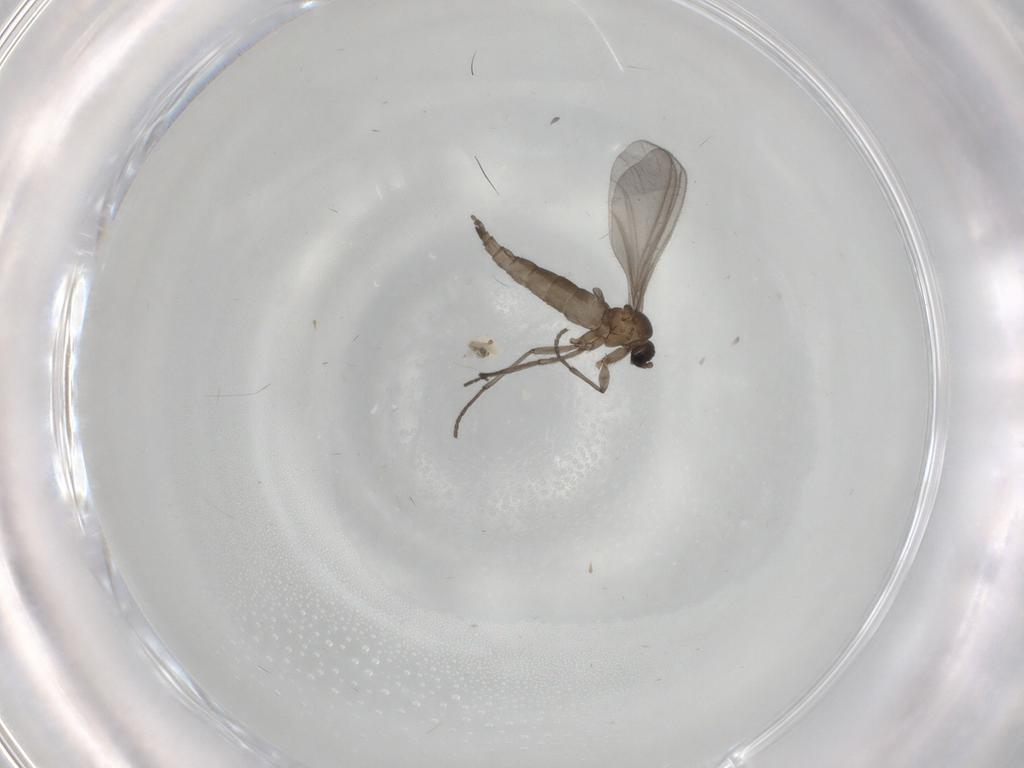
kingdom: Animalia
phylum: Arthropoda
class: Insecta
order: Diptera
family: Sciaridae
